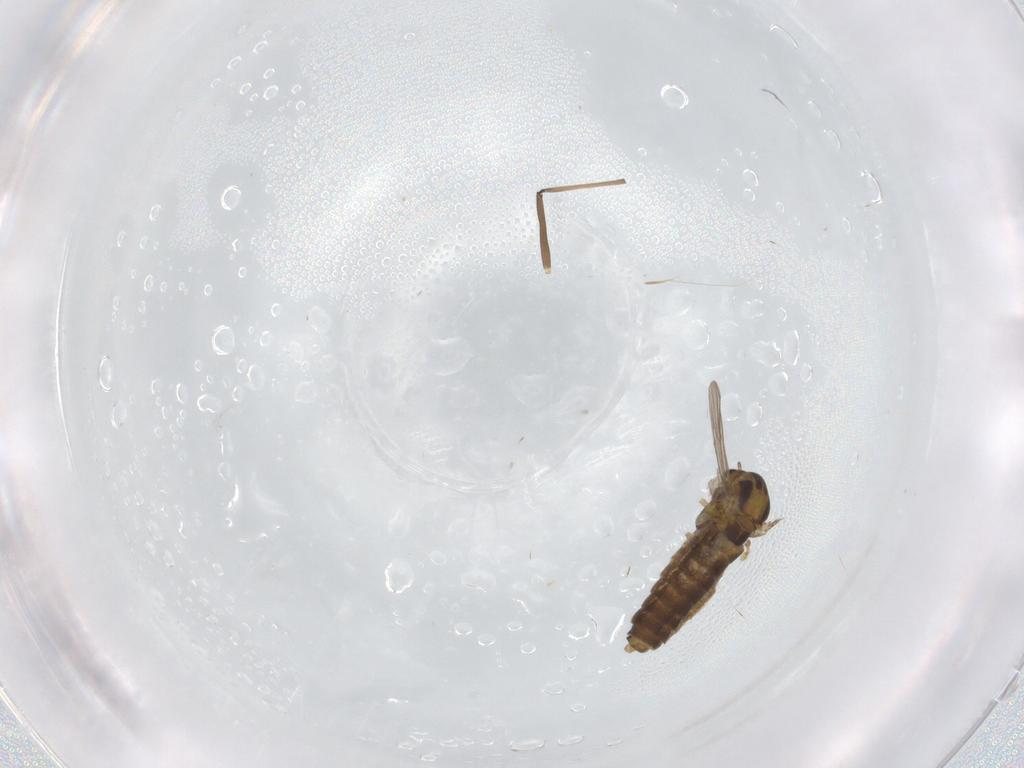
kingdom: Animalia
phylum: Arthropoda
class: Insecta
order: Diptera
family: Chironomidae
